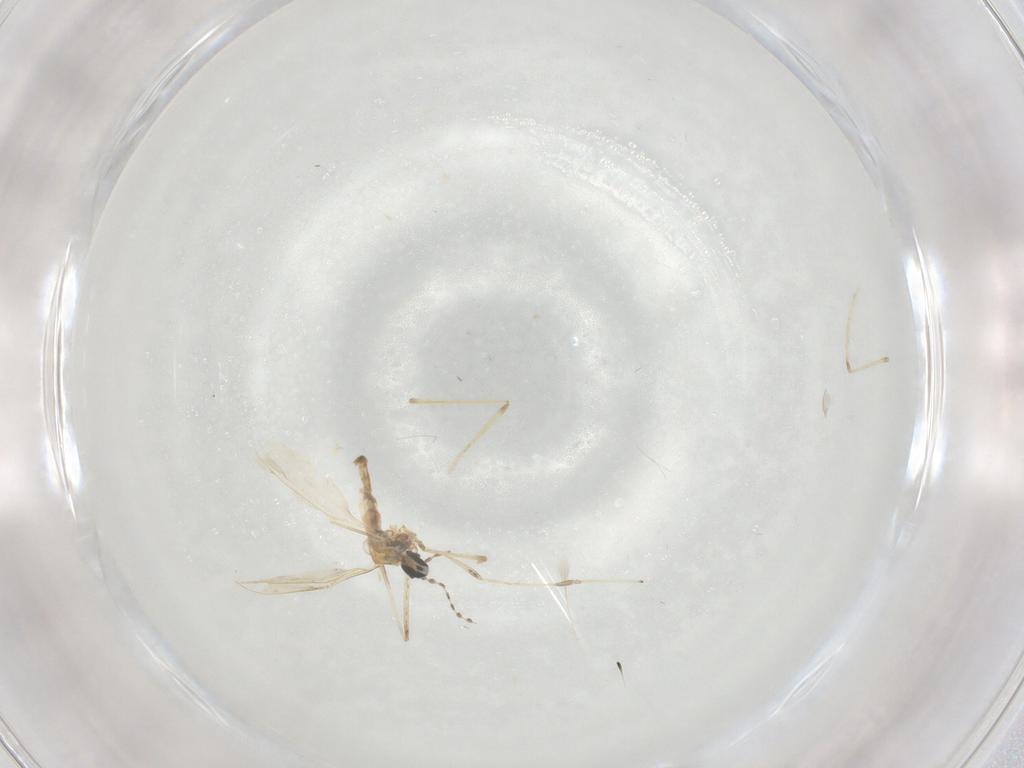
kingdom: Animalia
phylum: Arthropoda
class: Insecta
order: Diptera
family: Cecidomyiidae
